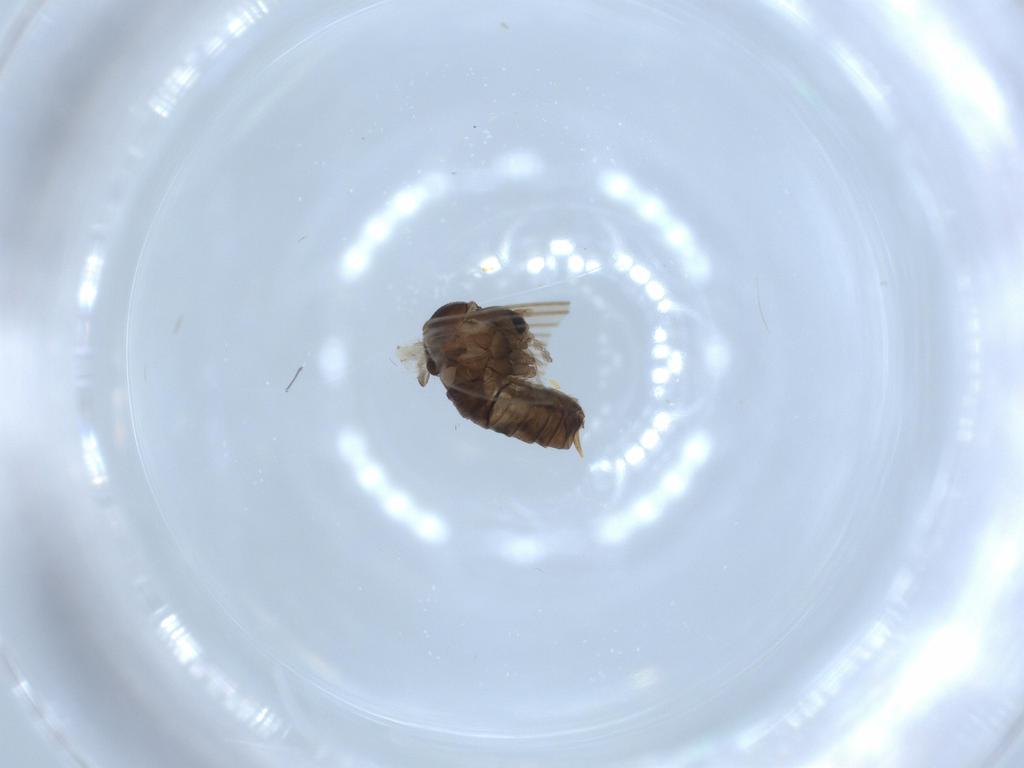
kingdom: Animalia
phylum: Arthropoda
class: Insecta
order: Diptera
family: Psychodidae
